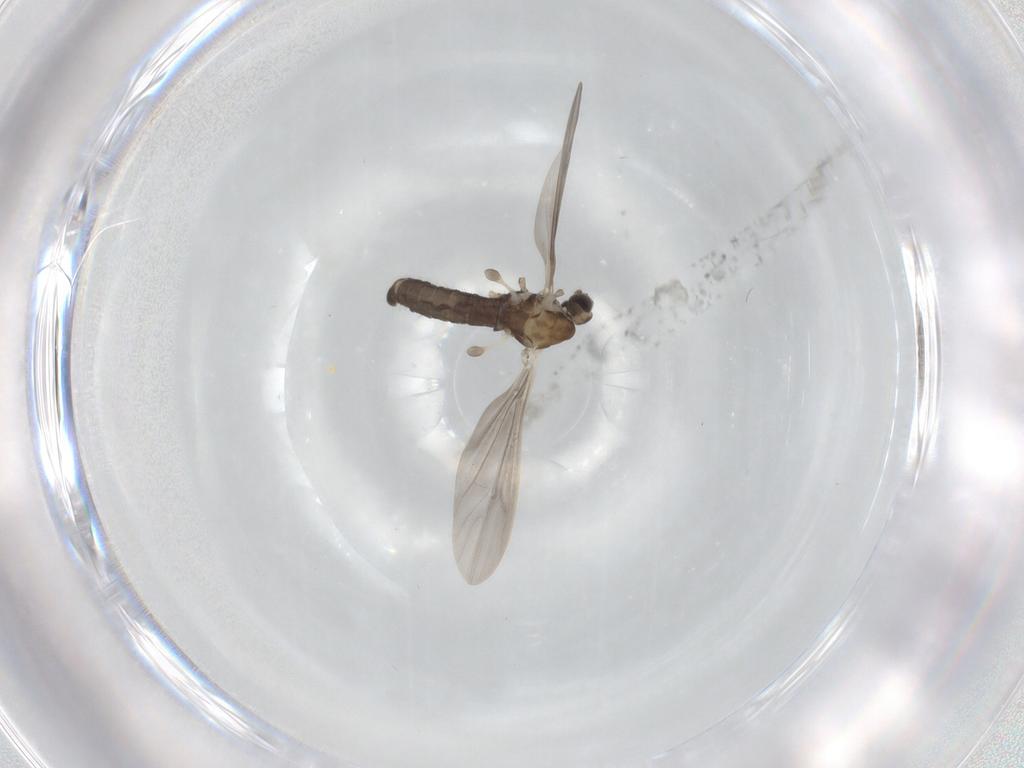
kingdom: Animalia
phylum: Arthropoda
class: Insecta
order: Diptera
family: Limoniidae
